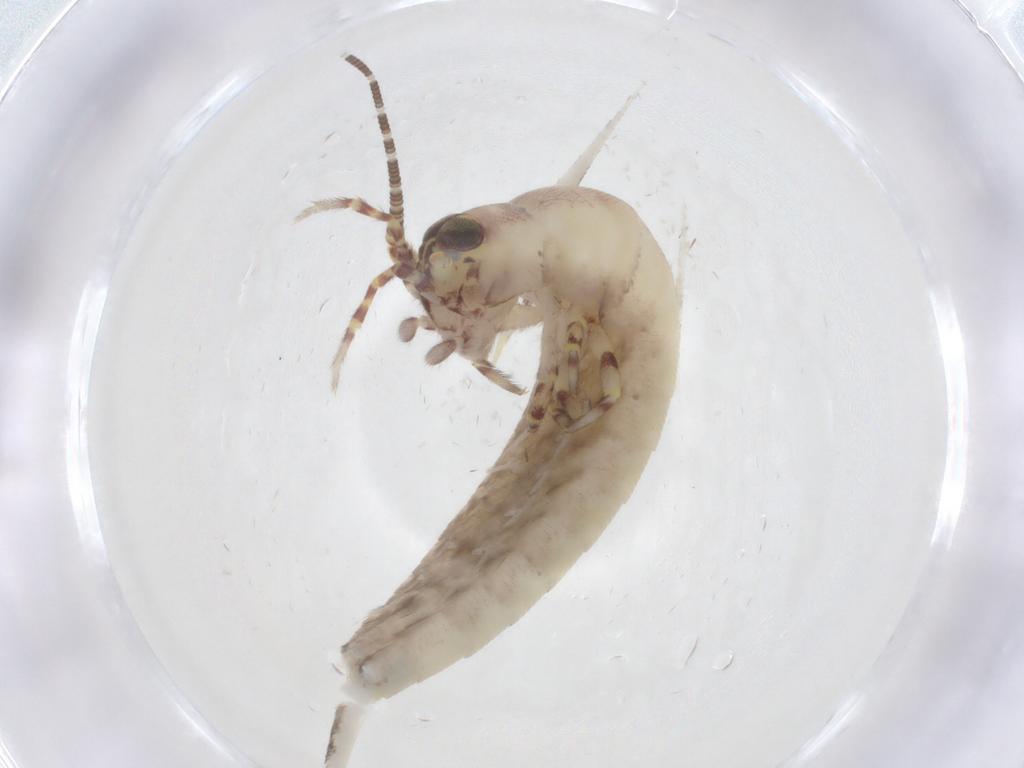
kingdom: Animalia
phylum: Arthropoda
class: Insecta
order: Archaeognatha
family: Meinertellidae
